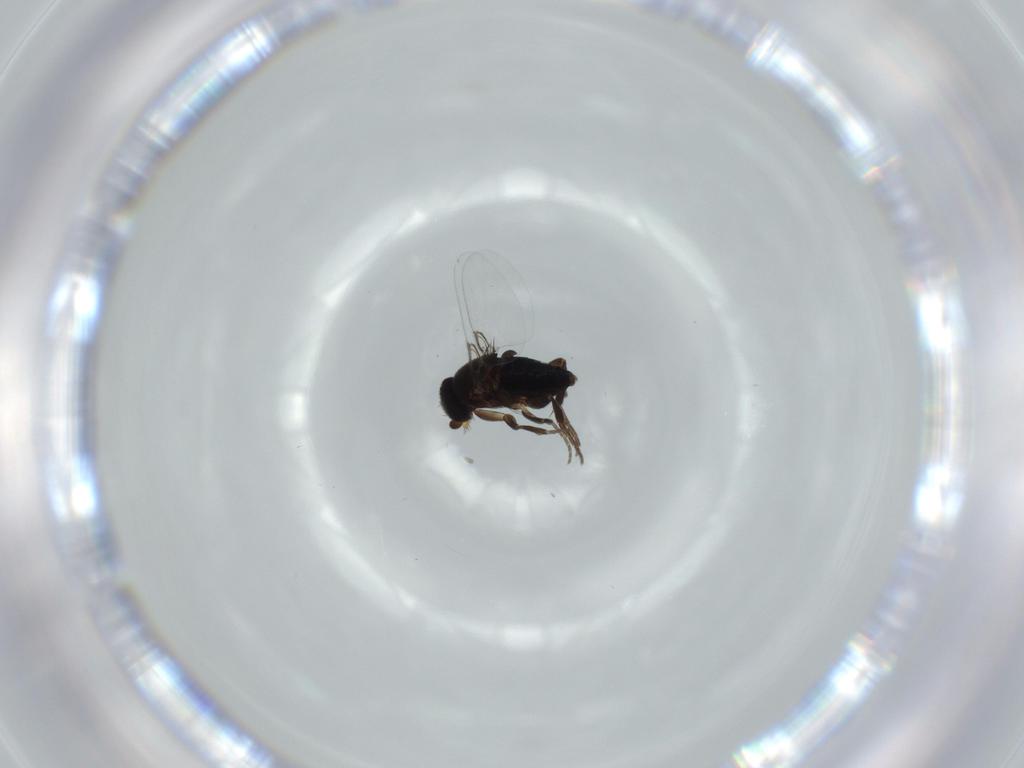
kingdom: Animalia
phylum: Arthropoda
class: Insecta
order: Diptera
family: Phoridae
